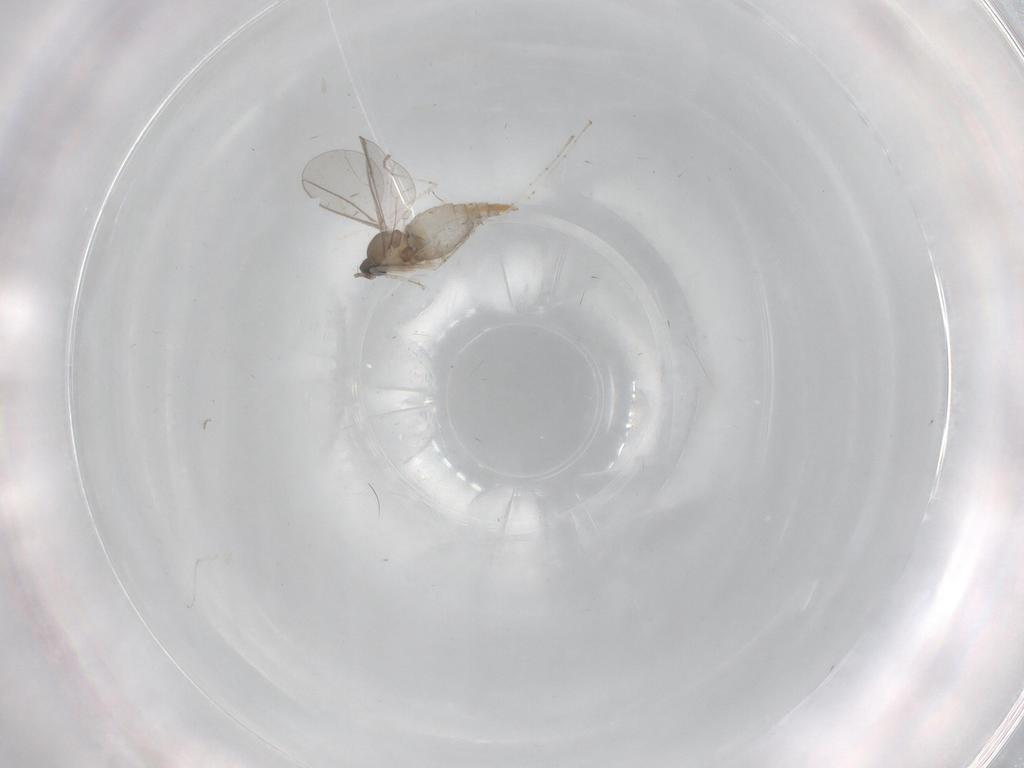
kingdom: Animalia
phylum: Arthropoda
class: Insecta
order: Diptera
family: Cecidomyiidae
